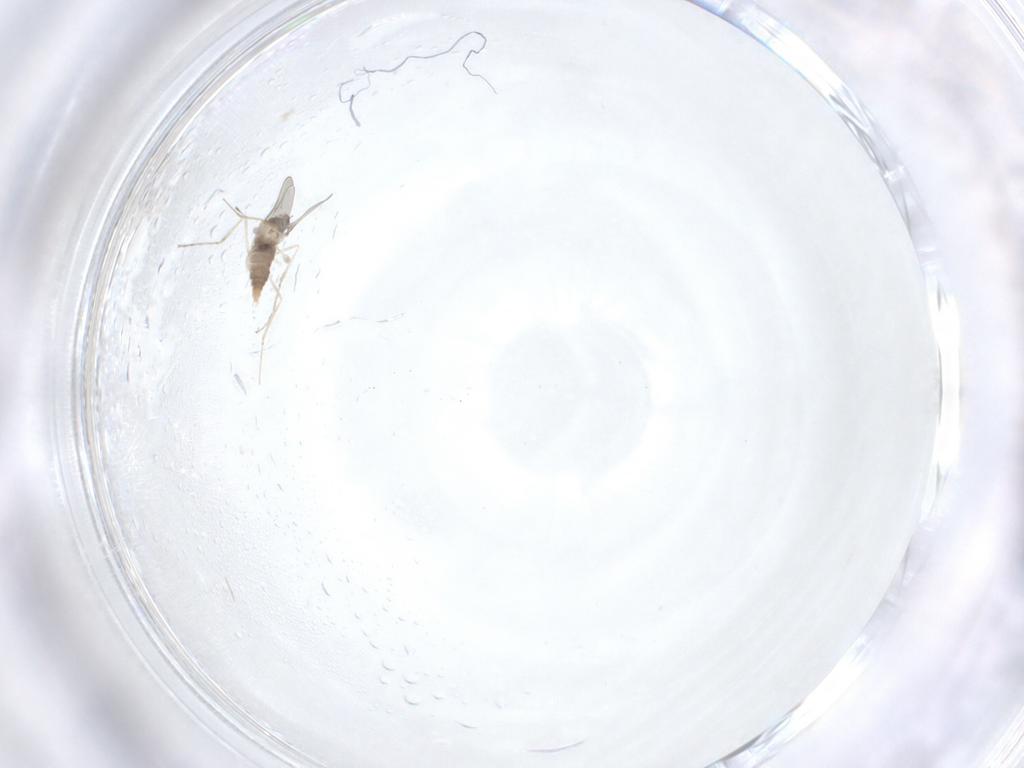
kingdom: Animalia
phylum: Arthropoda
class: Insecta
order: Diptera
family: Cecidomyiidae
